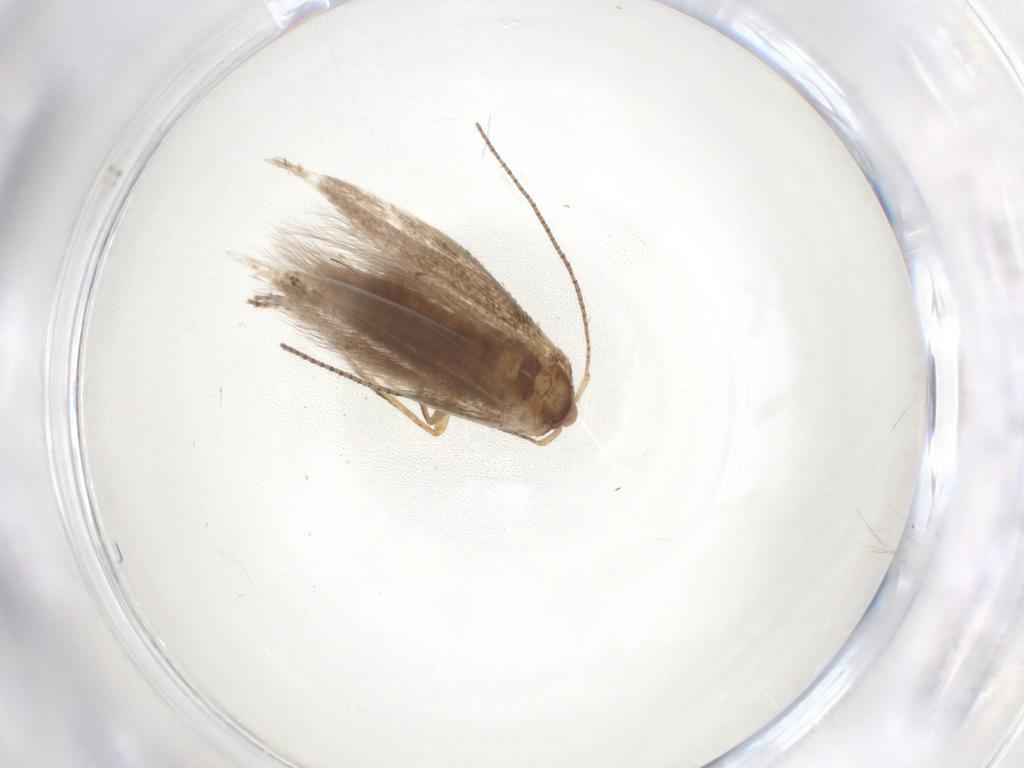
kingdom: Animalia
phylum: Arthropoda
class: Insecta
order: Lepidoptera
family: Bucculatricidae
